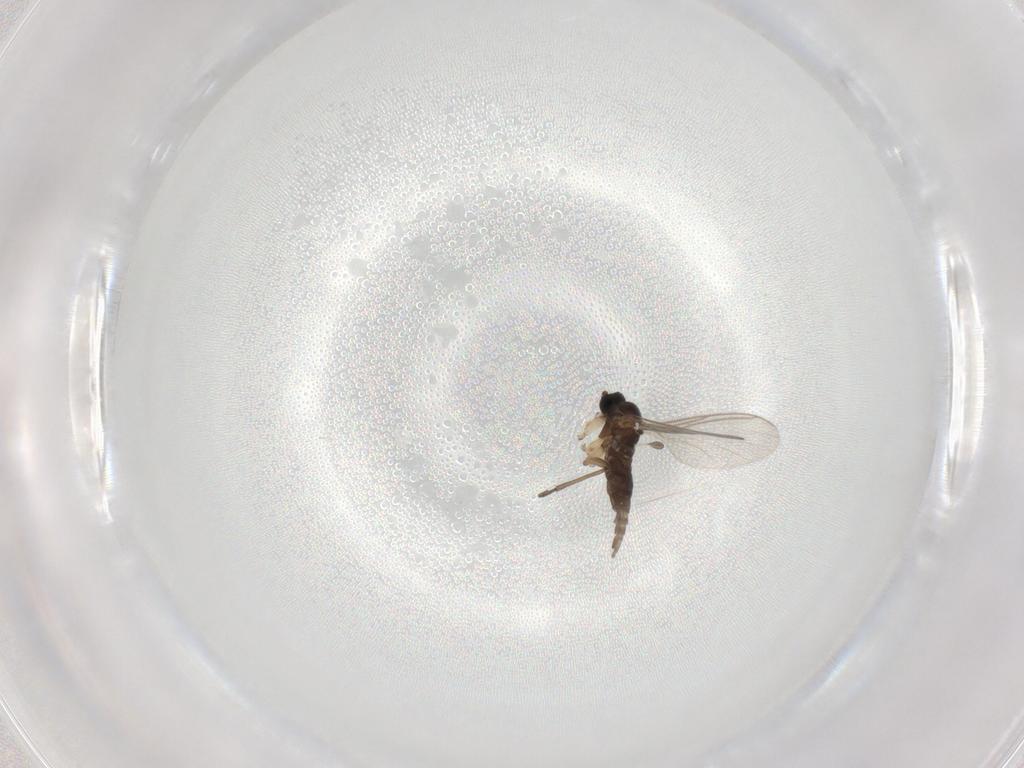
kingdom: Animalia
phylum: Arthropoda
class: Insecta
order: Diptera
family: Sciaridae
